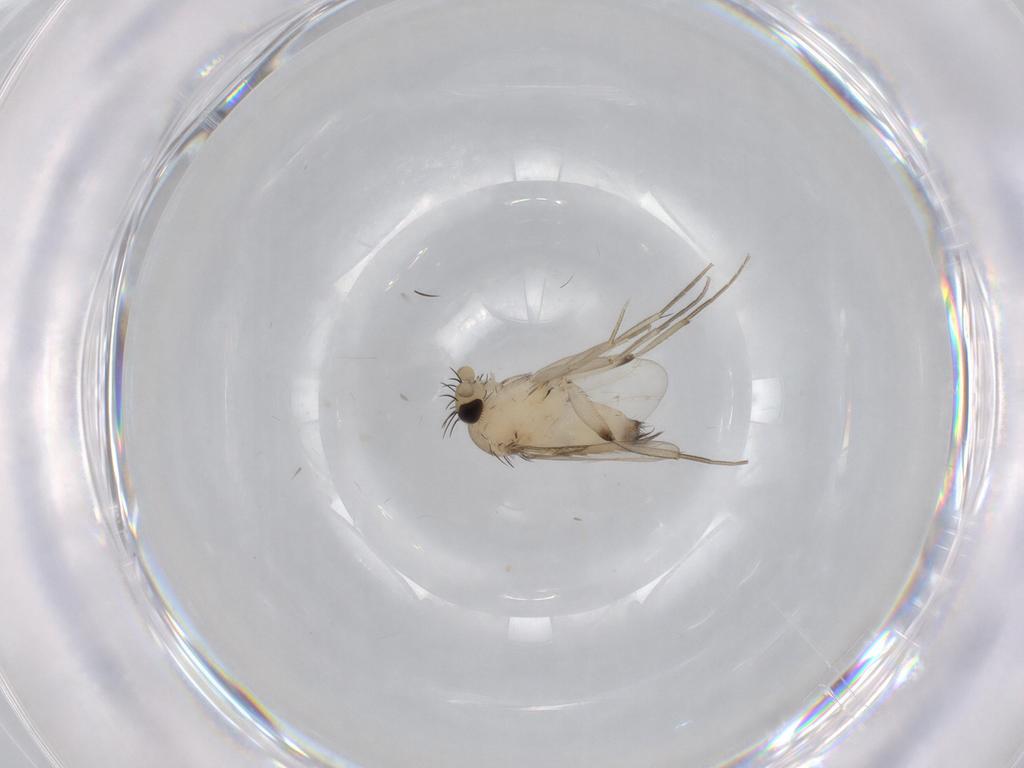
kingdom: Animalia
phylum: Arthropoda
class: Insecta
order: Diptera
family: Phoridae
